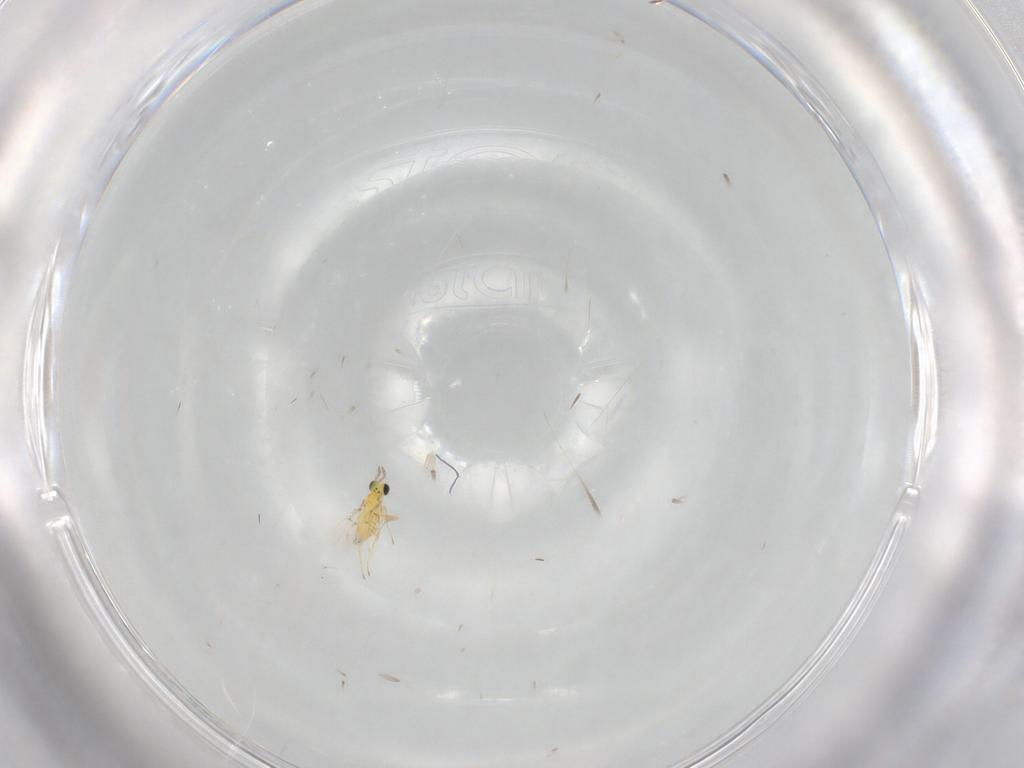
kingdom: Animalia
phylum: Arthropoda
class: Insecta
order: Hymenoptera
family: Trichogrammatidae
